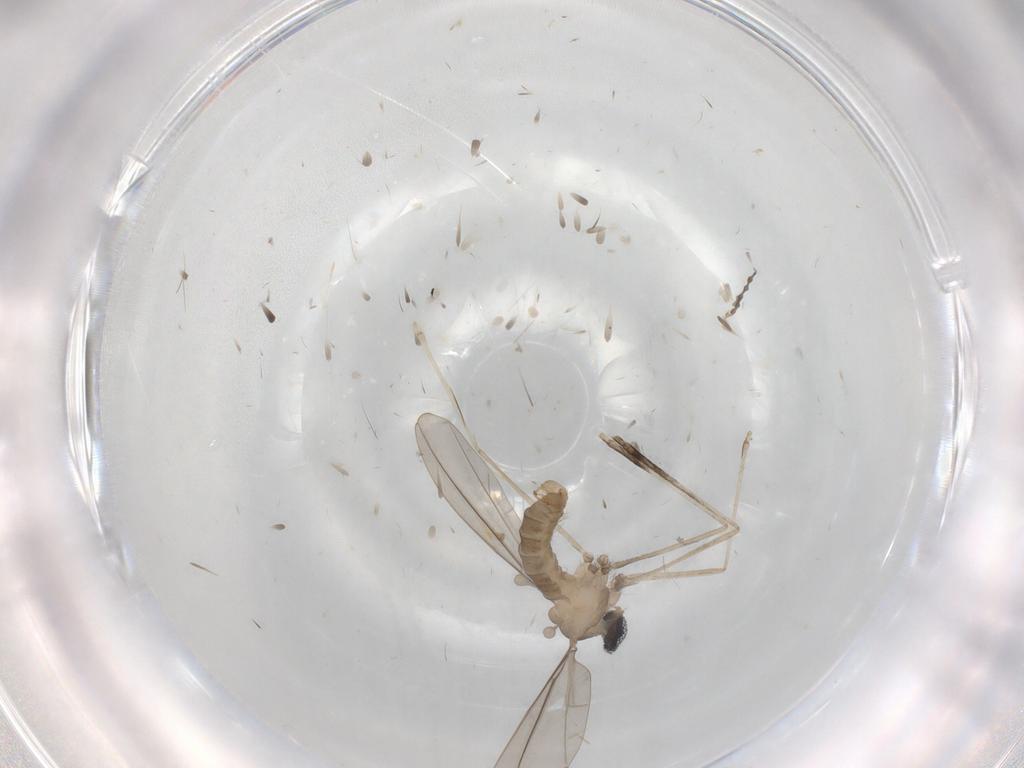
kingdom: Animalia
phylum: Arthropoda
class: Insecta
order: Diptera
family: Cecidomyiidae
